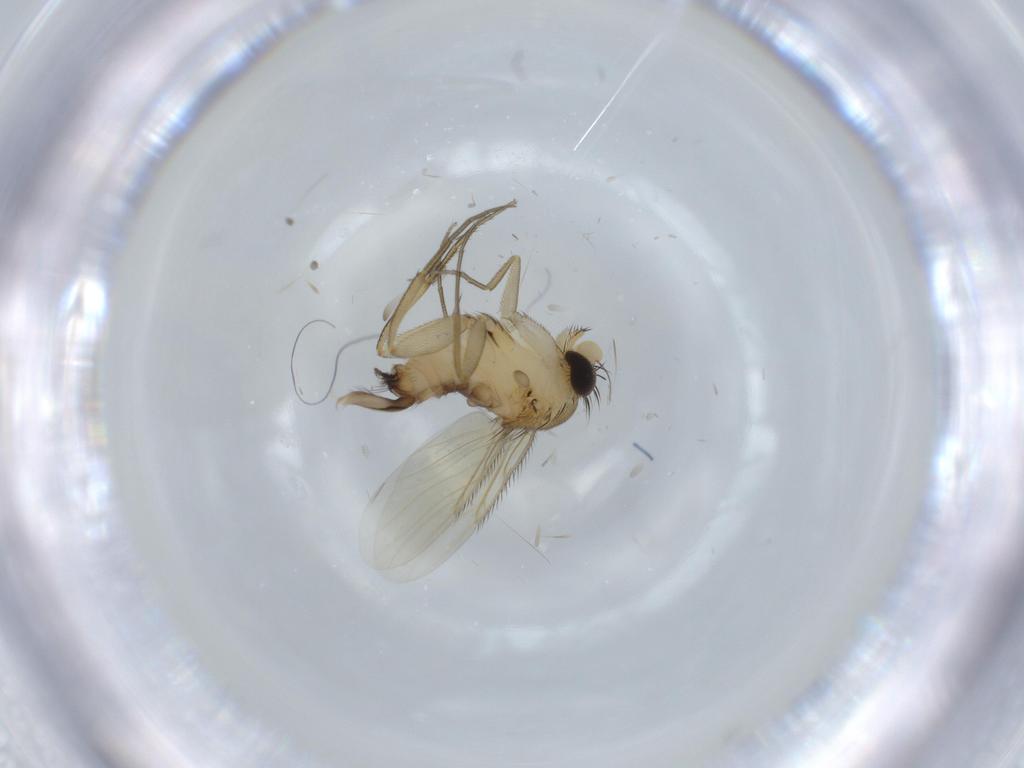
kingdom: Animalia
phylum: Arthropoda
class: Insecta
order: Diptera
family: Phoridae
